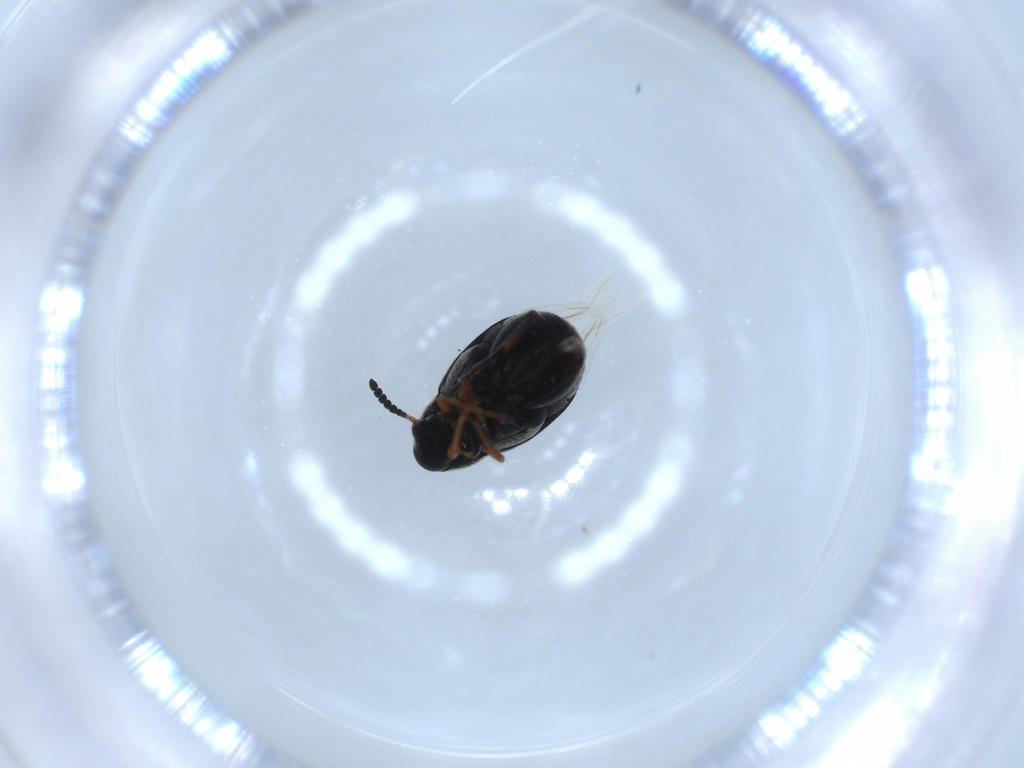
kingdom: Animalia
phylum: Arthropoda
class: Insecta
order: Coleoptera
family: Chrysomelidae
